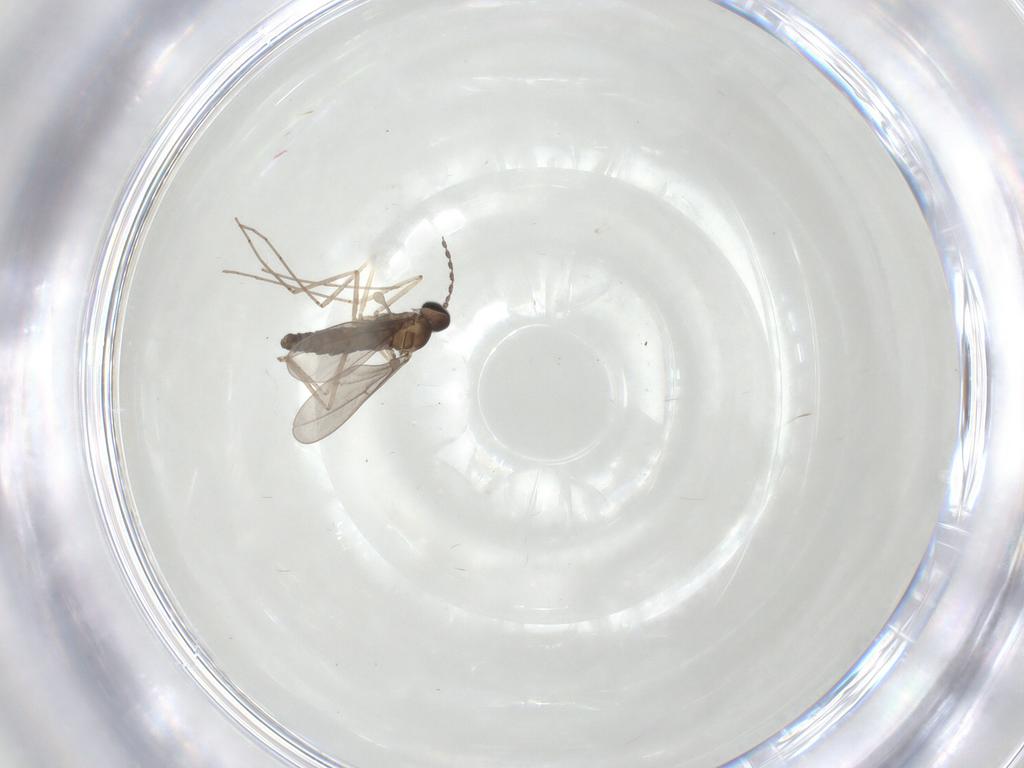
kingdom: Animalia
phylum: Arthropoda
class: Insecta
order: Diptera
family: Cecidomyiidae
